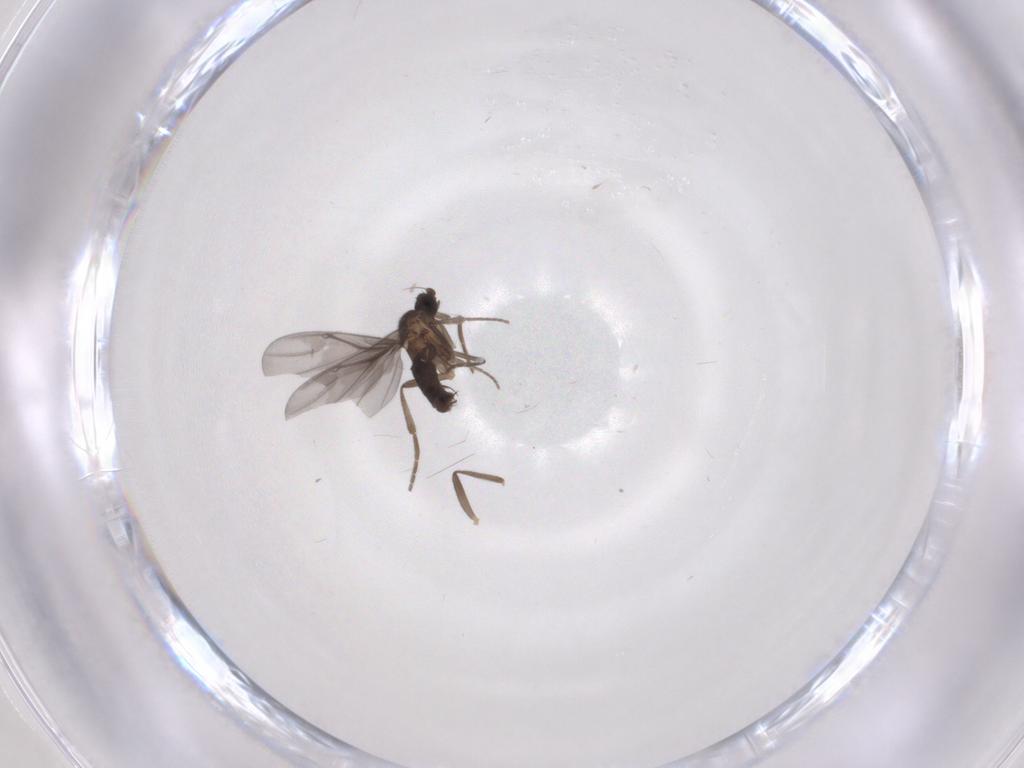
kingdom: Animalia
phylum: Arthropoda
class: Insecta
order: Diptera
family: Phoridae
